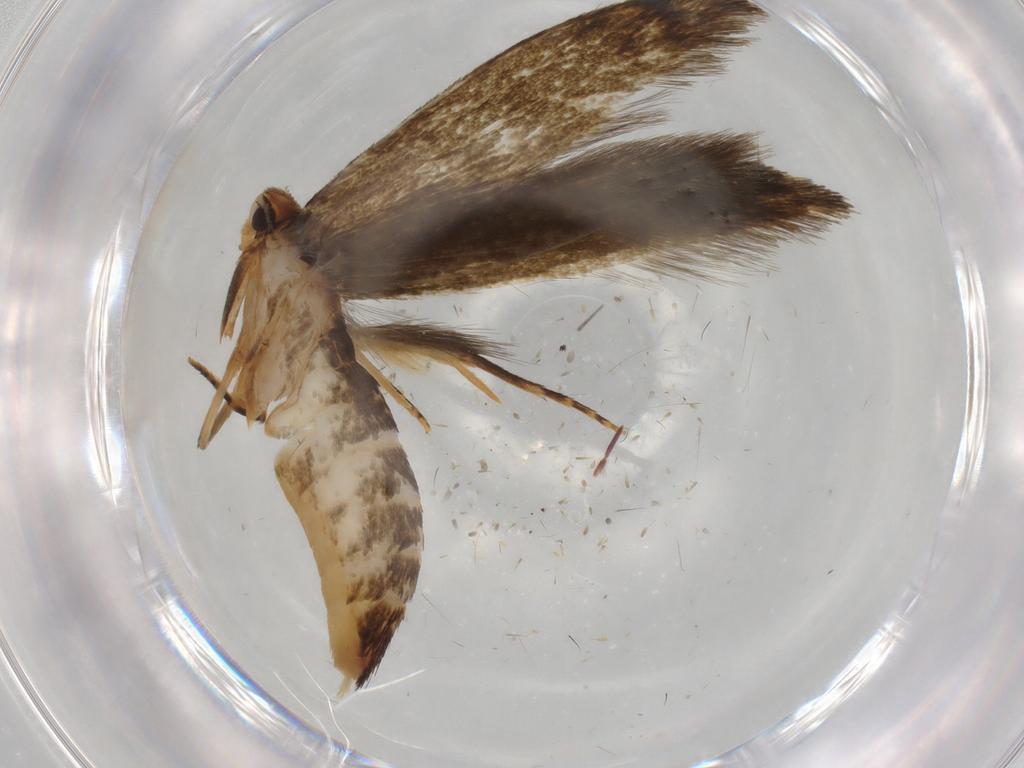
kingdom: Animalia
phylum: Arthropoda
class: Insecta
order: Lepidoptera
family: Tineidae
